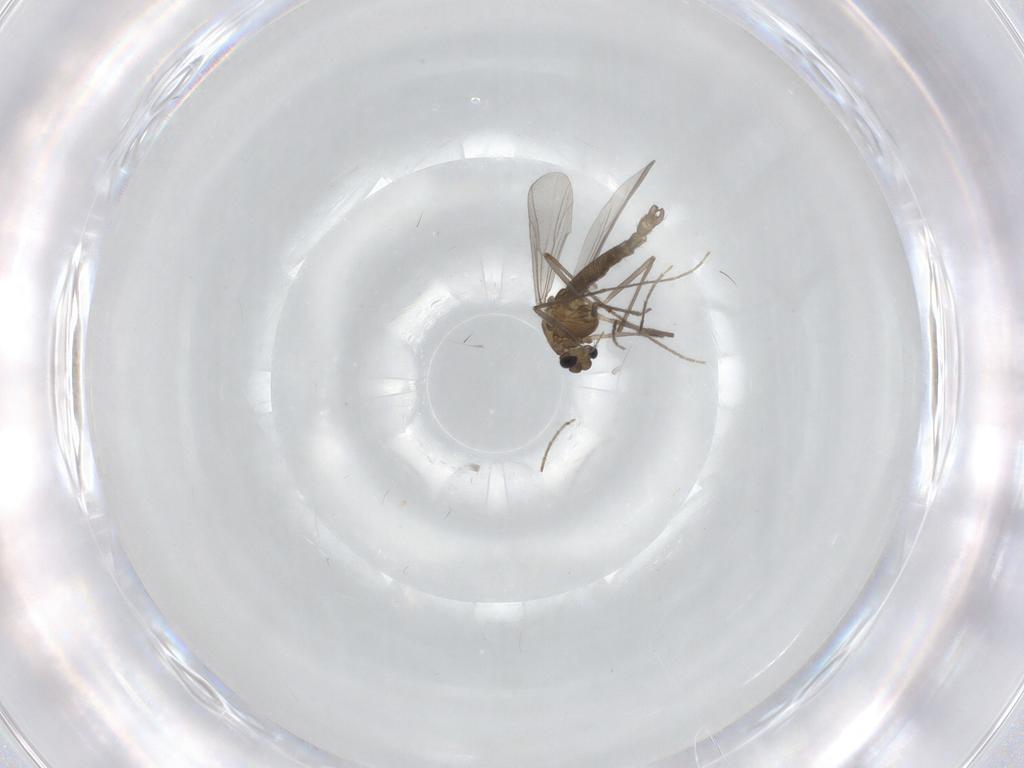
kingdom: Animalia
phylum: Arthropoda
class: Insecta
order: Diptera
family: Chironomidae
